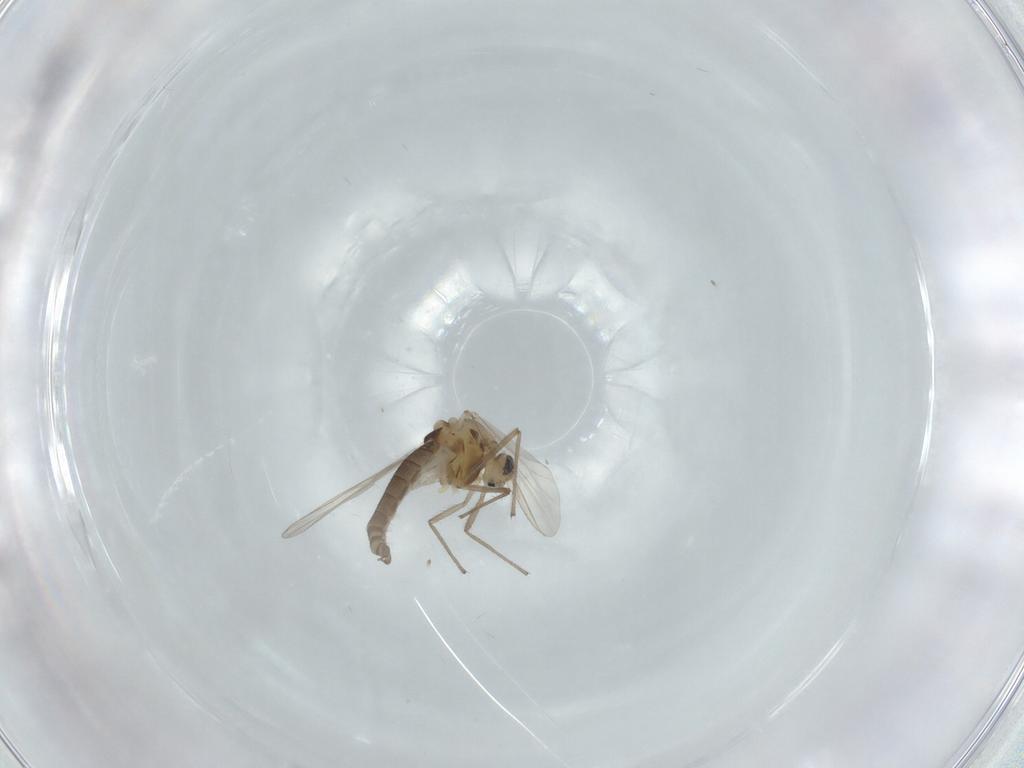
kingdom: Animalia
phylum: Arthropoda
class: Insecta
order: Diptera
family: Chironomidae
